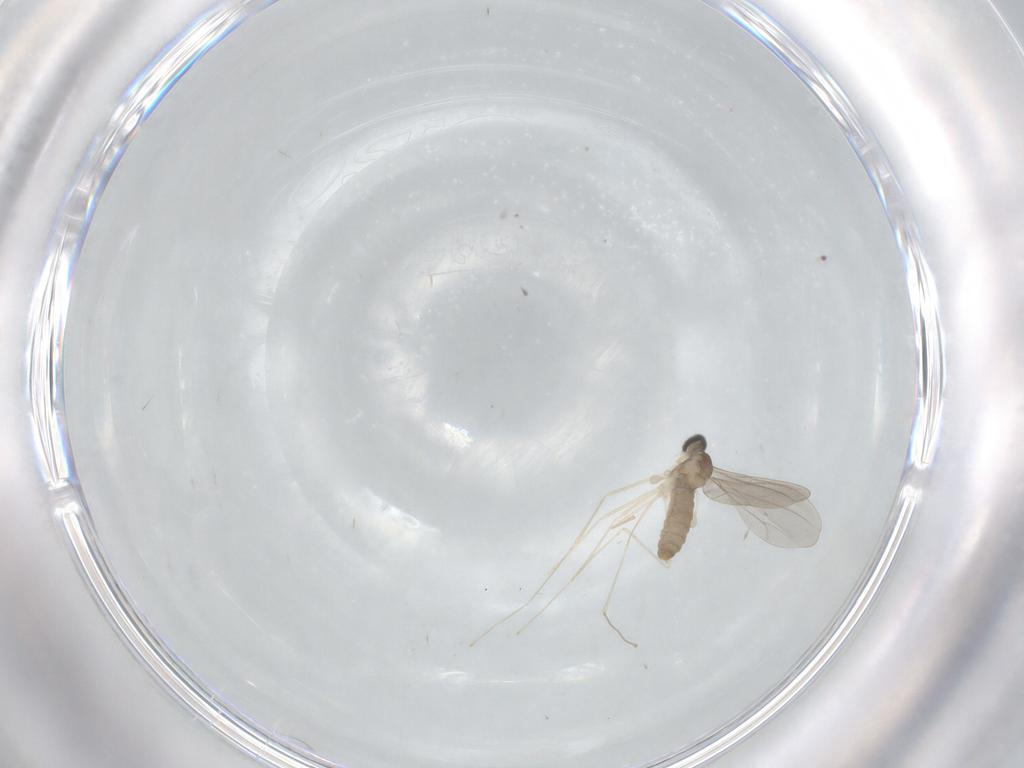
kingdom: Animalia
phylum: Arthropoda
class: Insecta
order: Diptera
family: Cecidomyiidae
